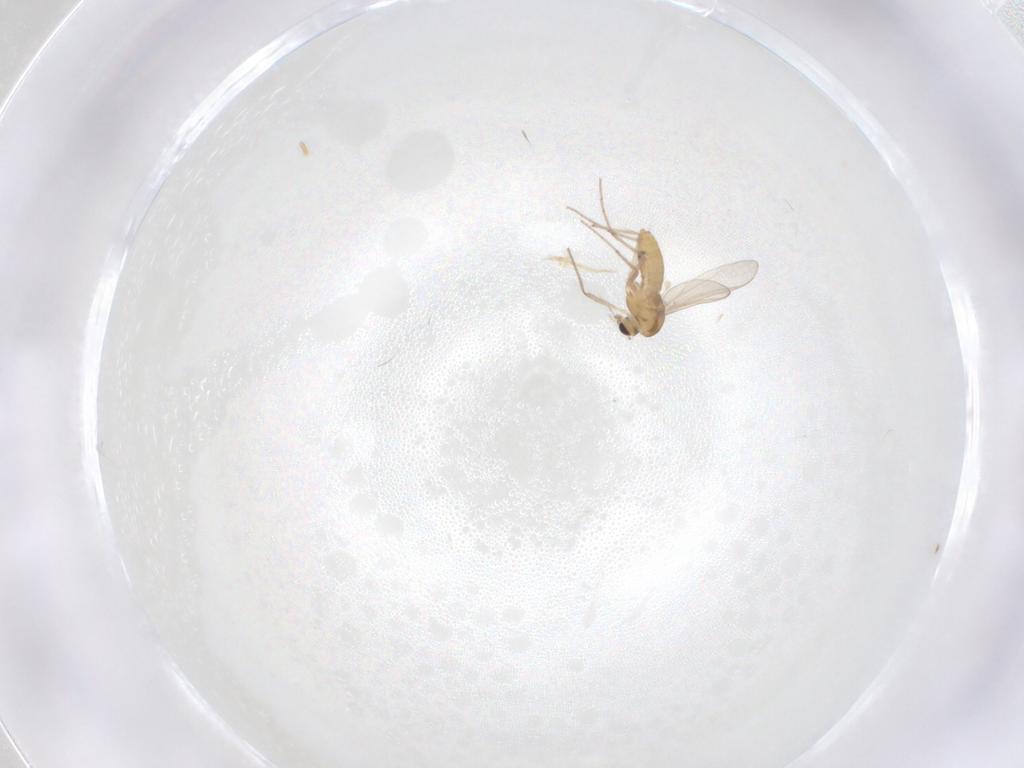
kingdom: Animalia
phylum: Arthropoda
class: Insecta
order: Diptera
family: Chironomidae
